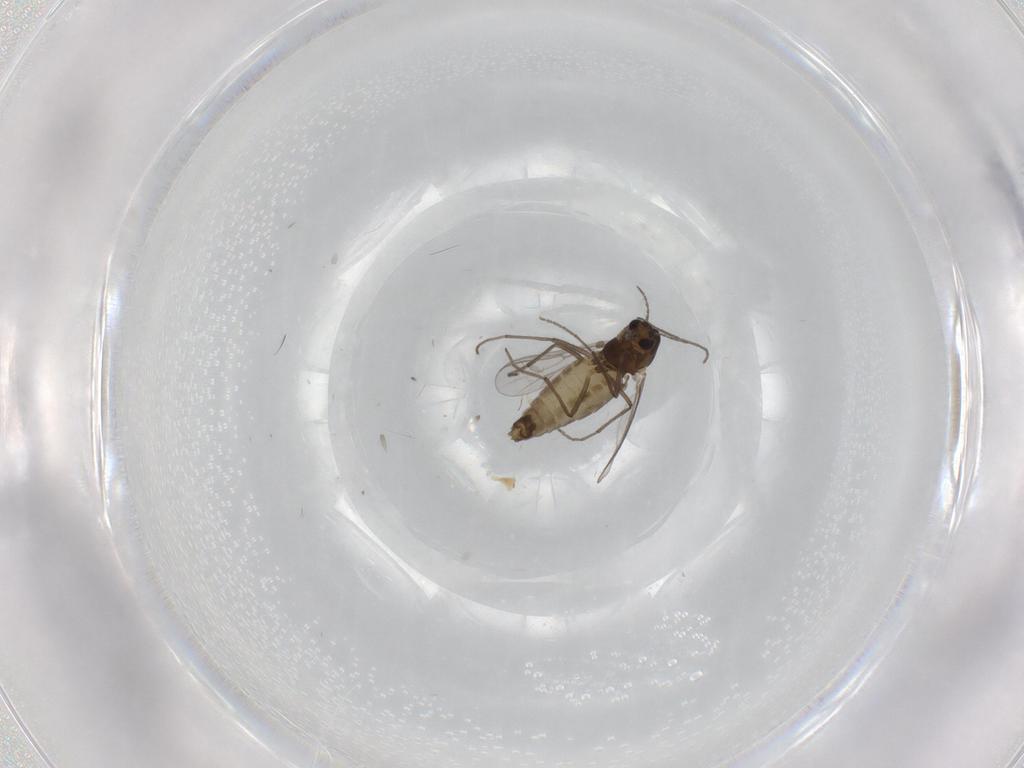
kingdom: Animalia
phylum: Arthropoda
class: Insecta
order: Diptera
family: Chironomidae
